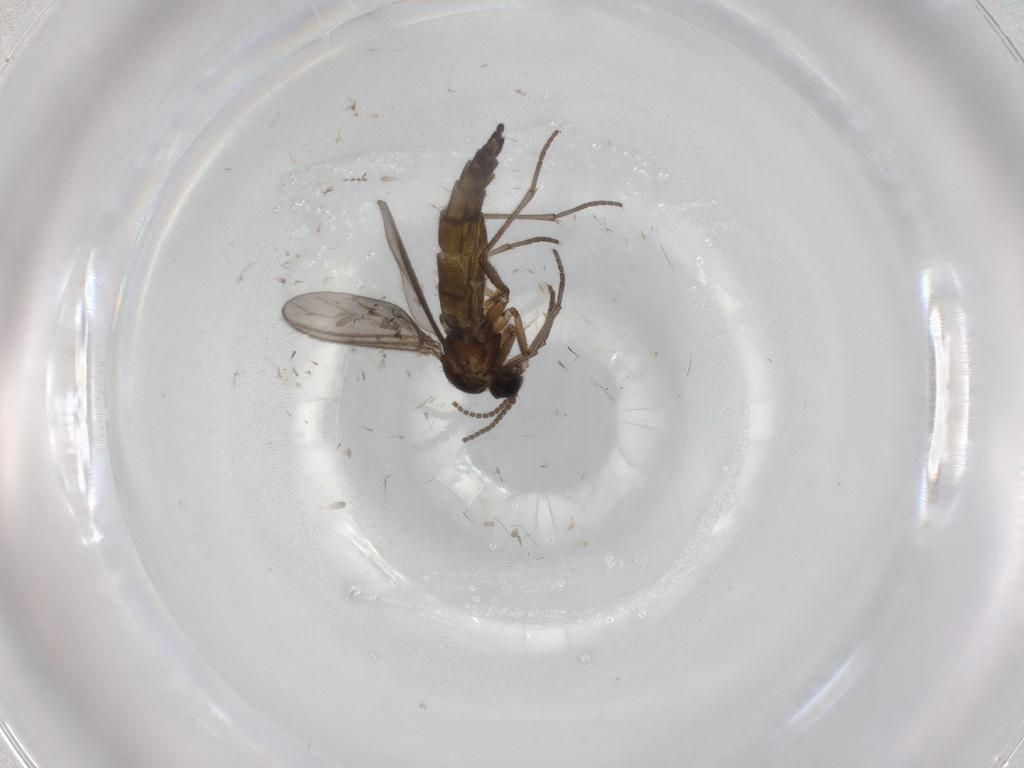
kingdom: Animalia
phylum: Arthropoda
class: Insecta
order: Diptera
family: Sciaridae
